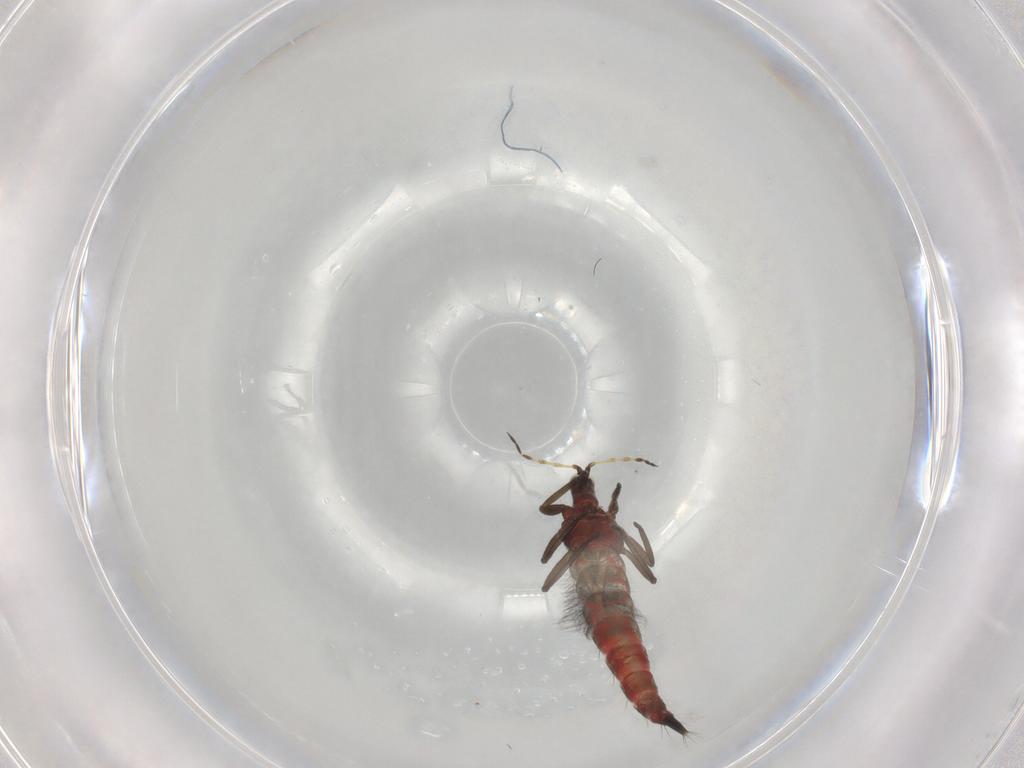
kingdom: Animalia
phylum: Arthropoda
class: Insecta
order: Thysanoptera
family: Phlaeothripidae
